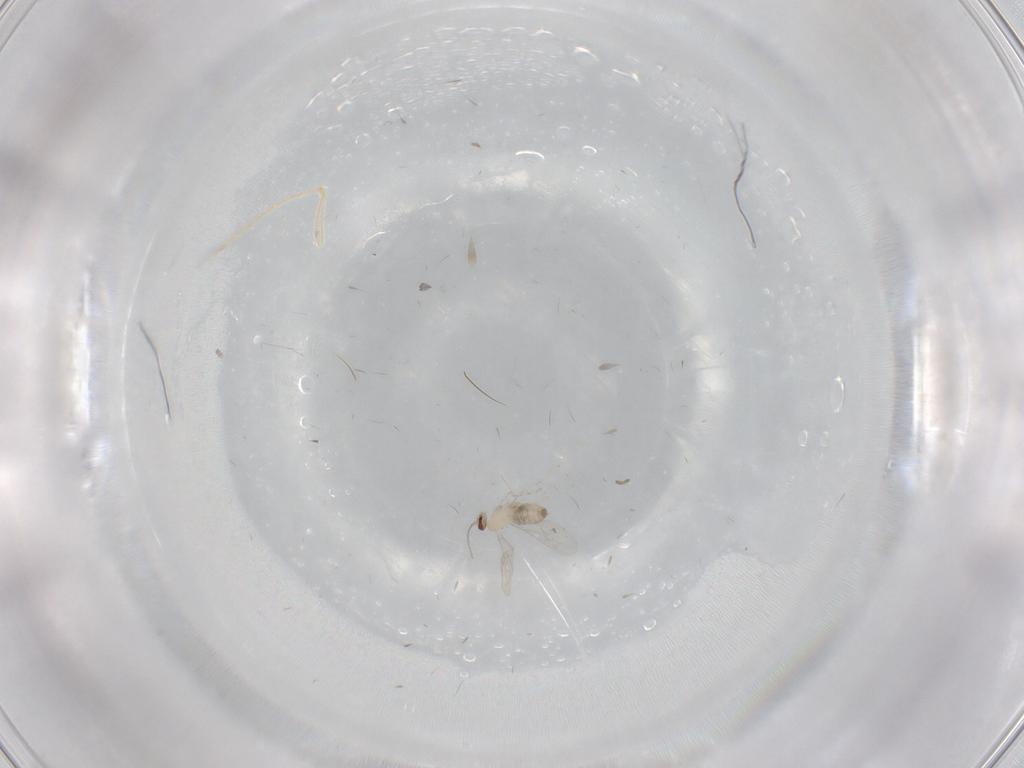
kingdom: Animalia
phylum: Arthropoda
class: Insecta
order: Diptera
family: Cecidomyiidae
